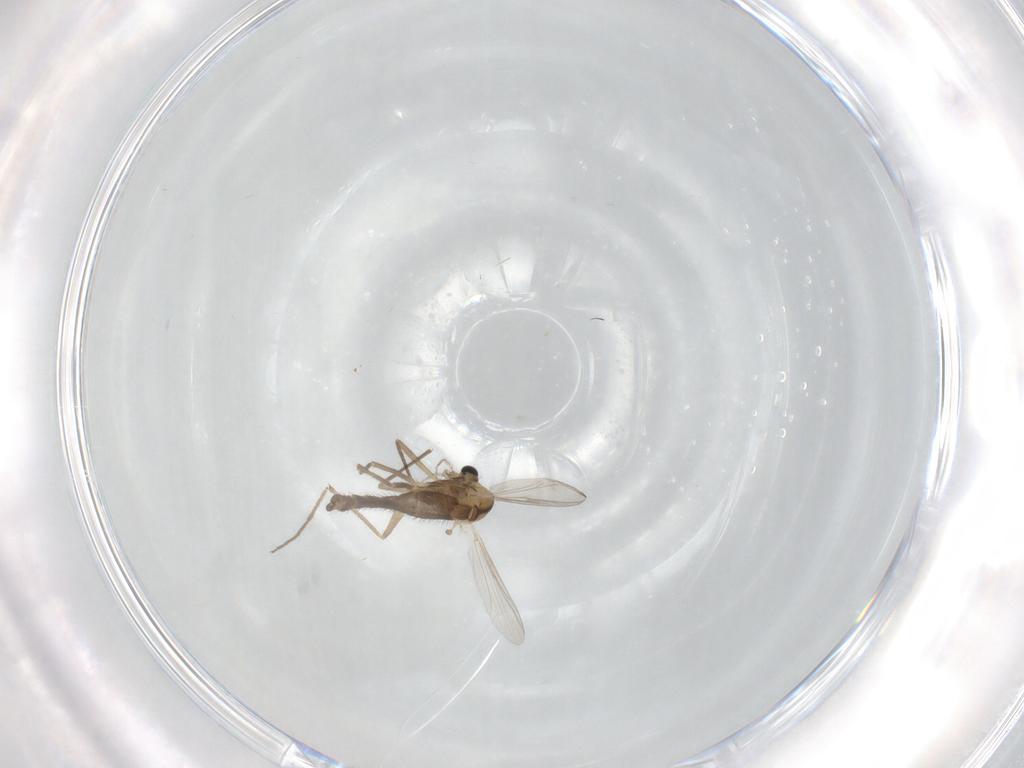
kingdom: Animalia
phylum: Arthropoda
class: Insecta
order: Diptera
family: Chironomidae
